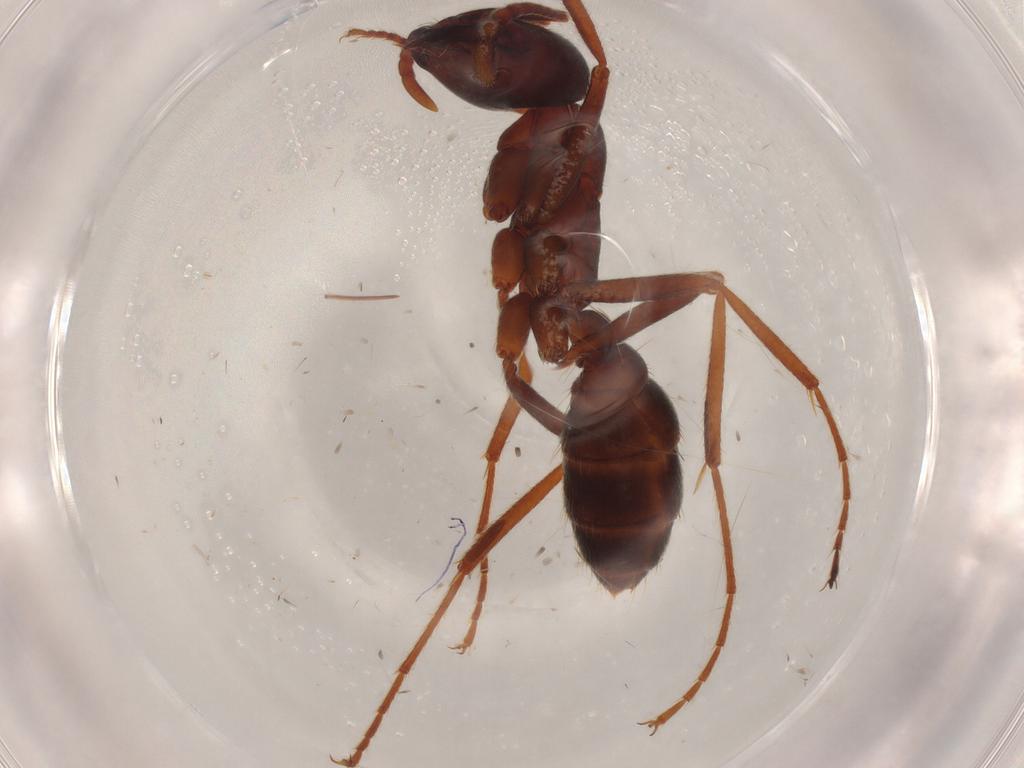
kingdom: Animalia
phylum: Arthropoda
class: Insecta
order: Hymenoptera
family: Formicidae
